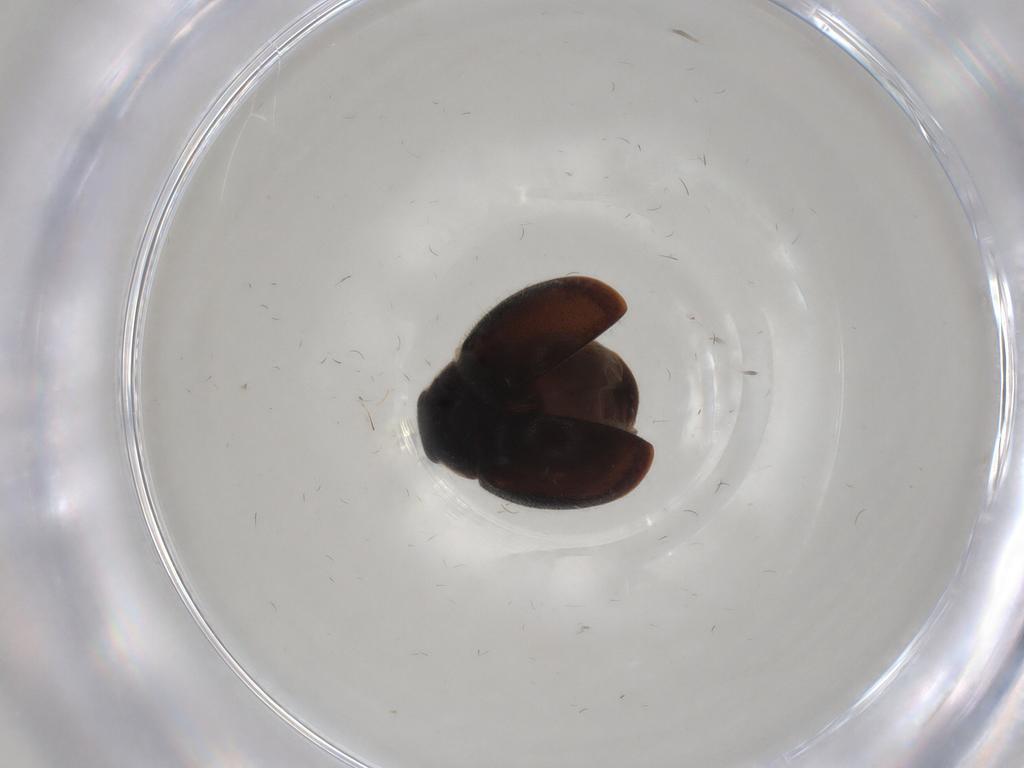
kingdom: Animalia
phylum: Arthropoda
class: Insecta
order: Coleoptera
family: Coccinellidae
